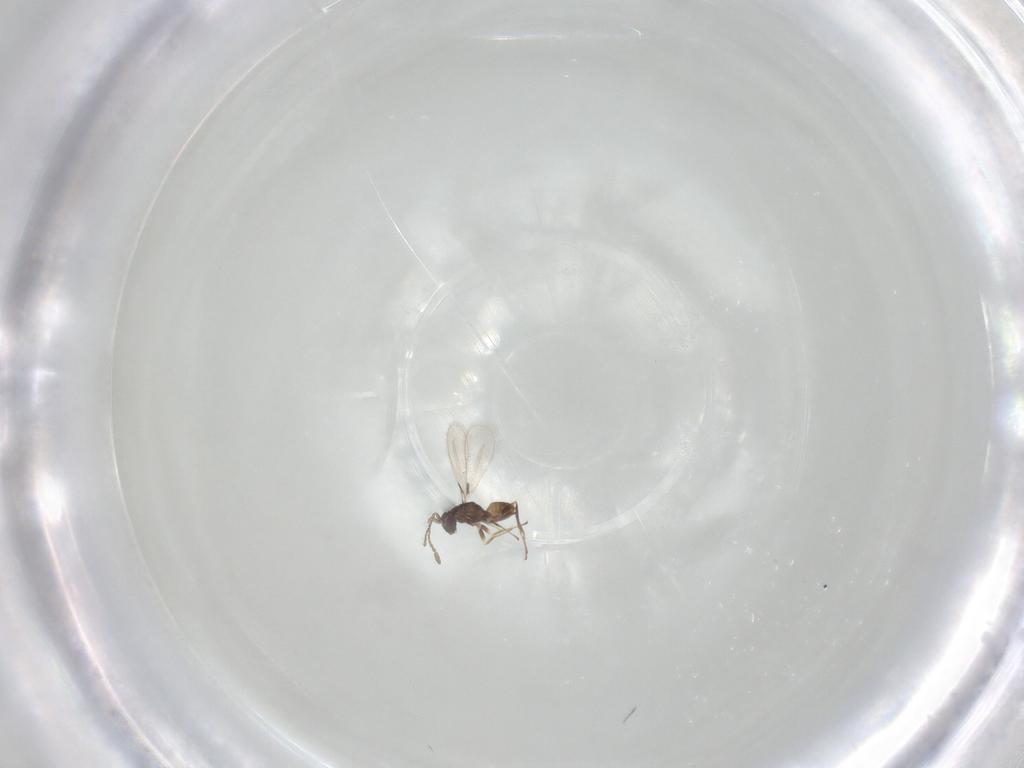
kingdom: Animalia
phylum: Arthropoda
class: Insecta
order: Hymenoptera
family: Mymaridae
